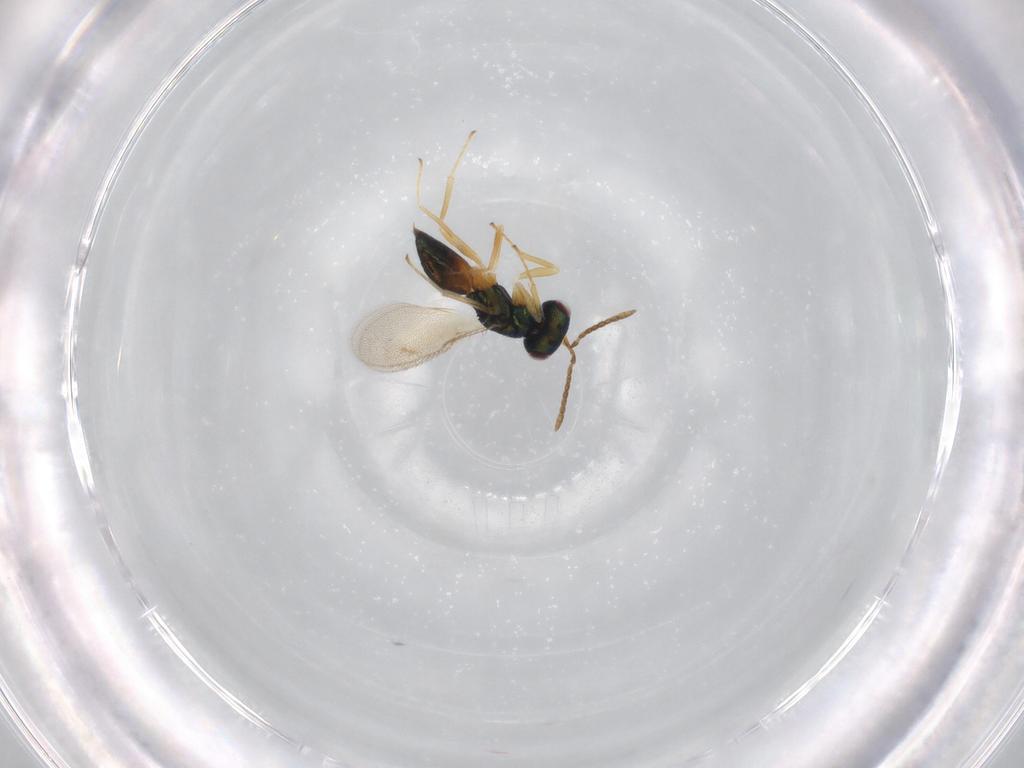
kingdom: Animalia
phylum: Arthropoda
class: Insecta
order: Hymenoptera
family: Pteromalidae
